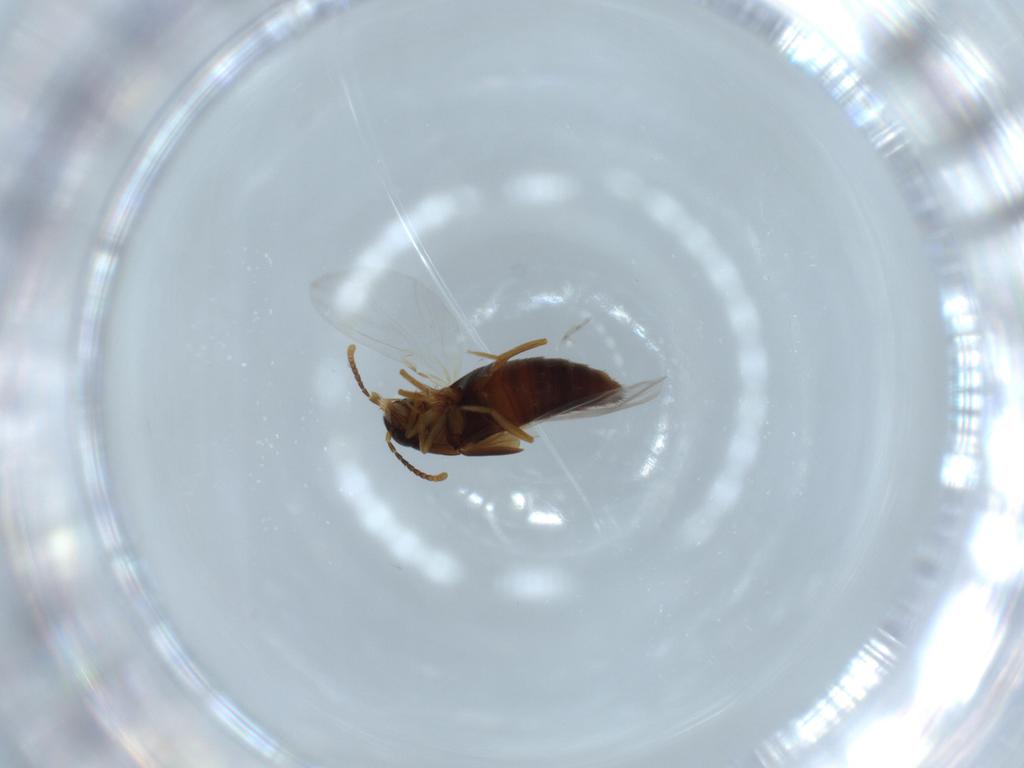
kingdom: Animalia
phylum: Arthropoda
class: Insecta
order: Coleoptera
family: Staphylinidae
